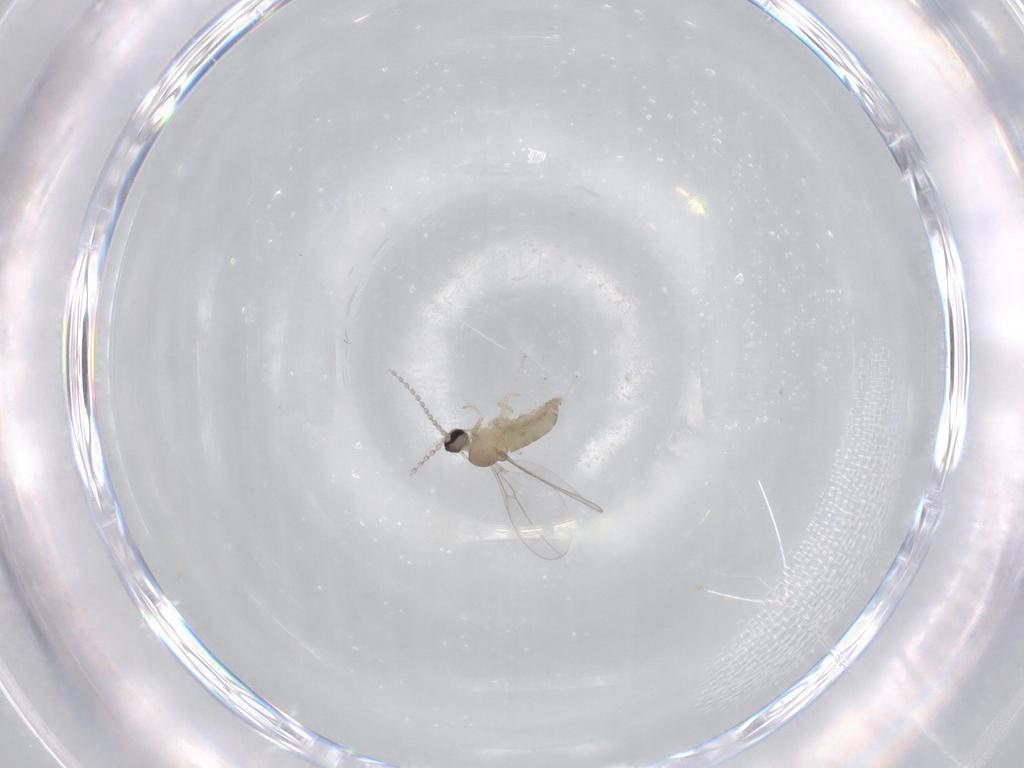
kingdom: Animalia
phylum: Arthropoda
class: Insecta
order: Diptera
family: Cecidomyiidae
